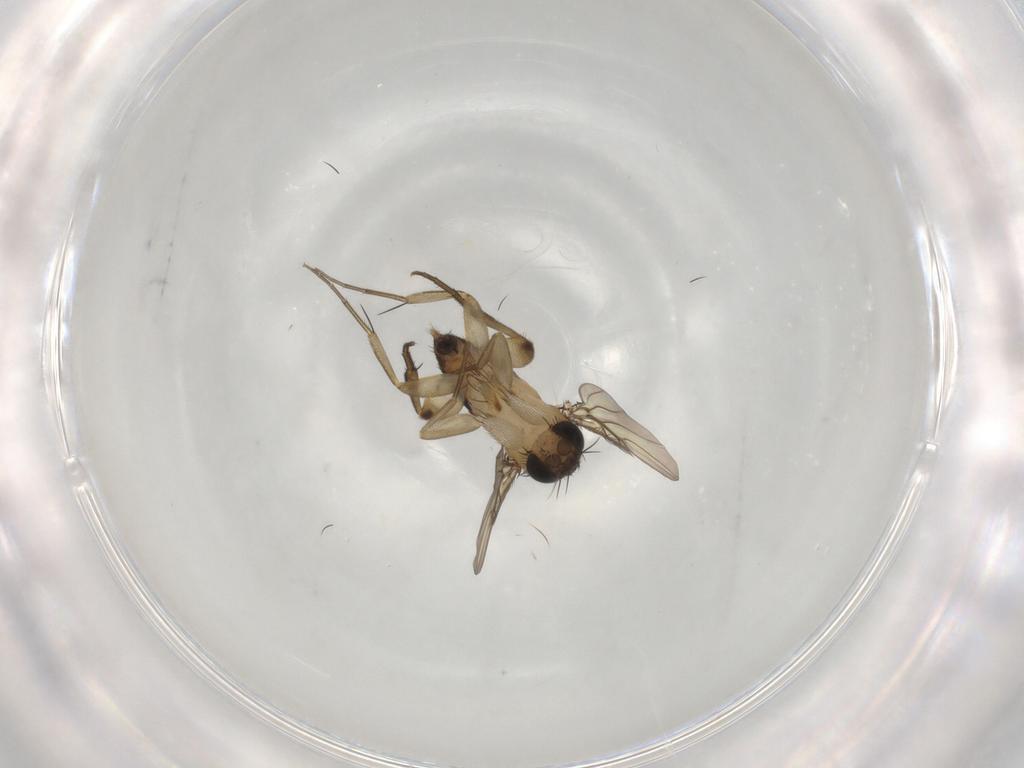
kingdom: Animalia
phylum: Arthropoda
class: Insecta
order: Diptera
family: Phoridae
